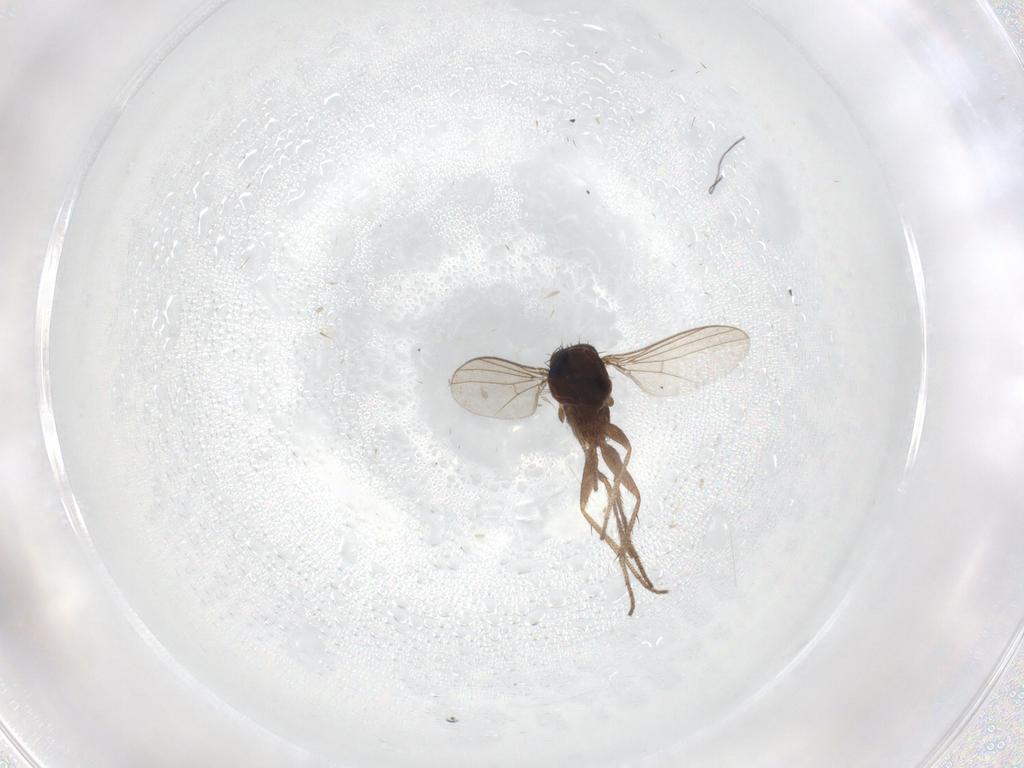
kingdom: Animalia
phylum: Arthropoda
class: Insecta
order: Diptera
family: Dolichopodidae
